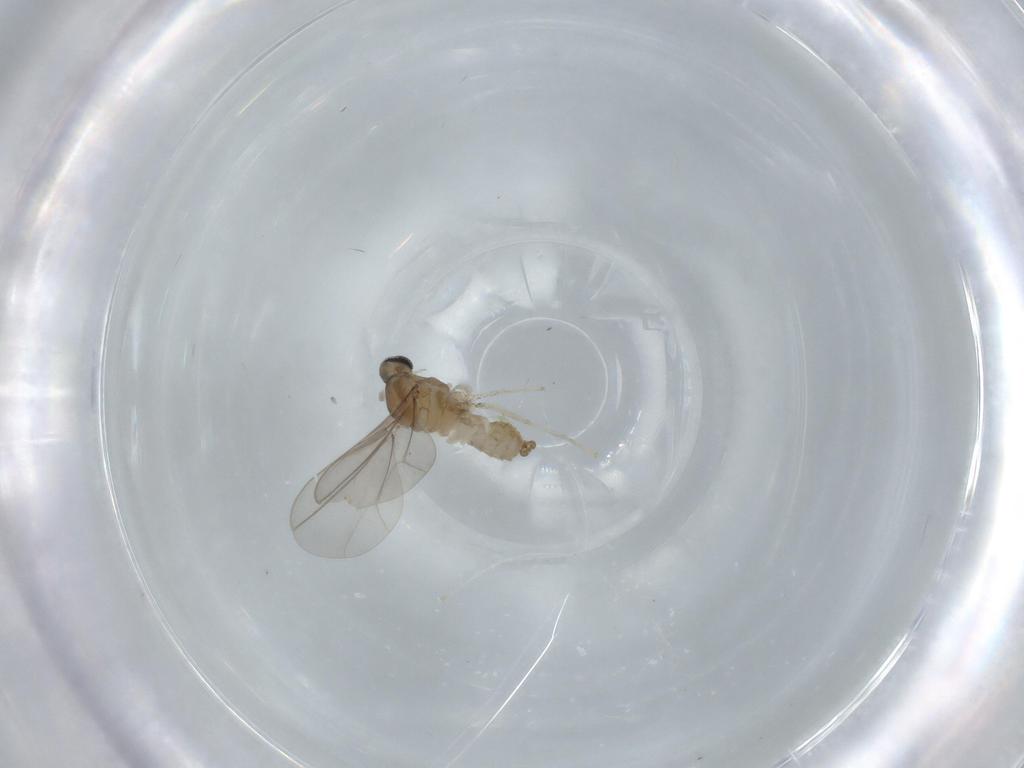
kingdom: Animalia
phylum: Arthropoda
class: Insecta
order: Diptera
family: Cecidomyiidae
